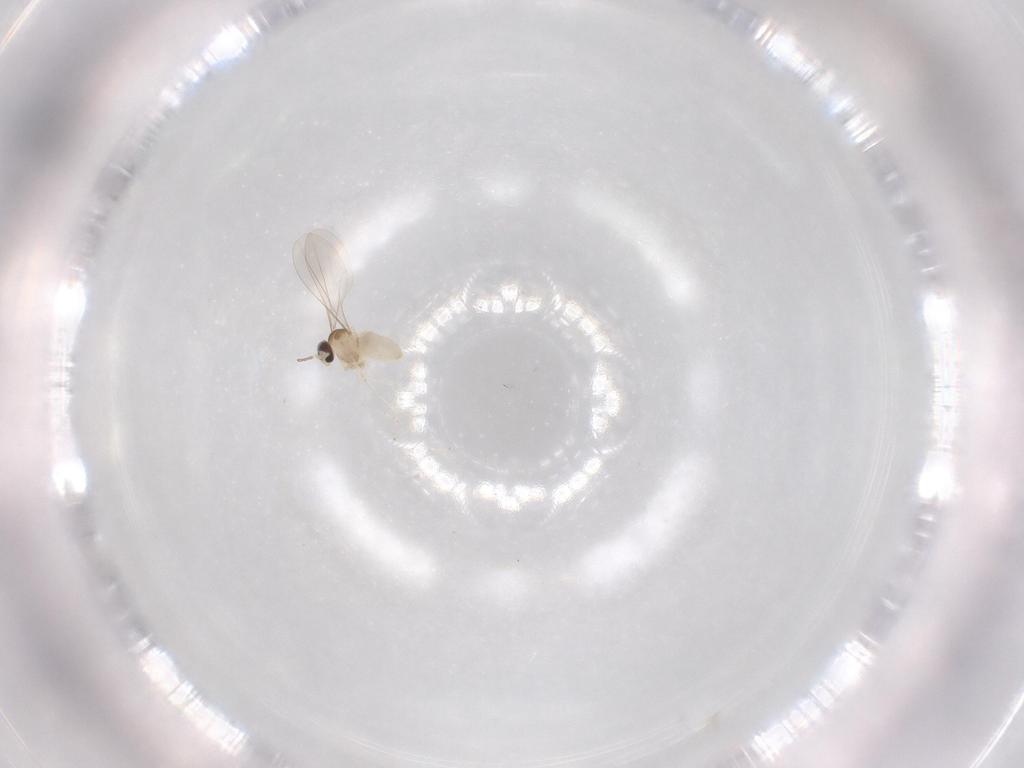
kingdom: Animalia
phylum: Arthropoda
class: Insecta
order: Diptera
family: Cecidomyiidae
